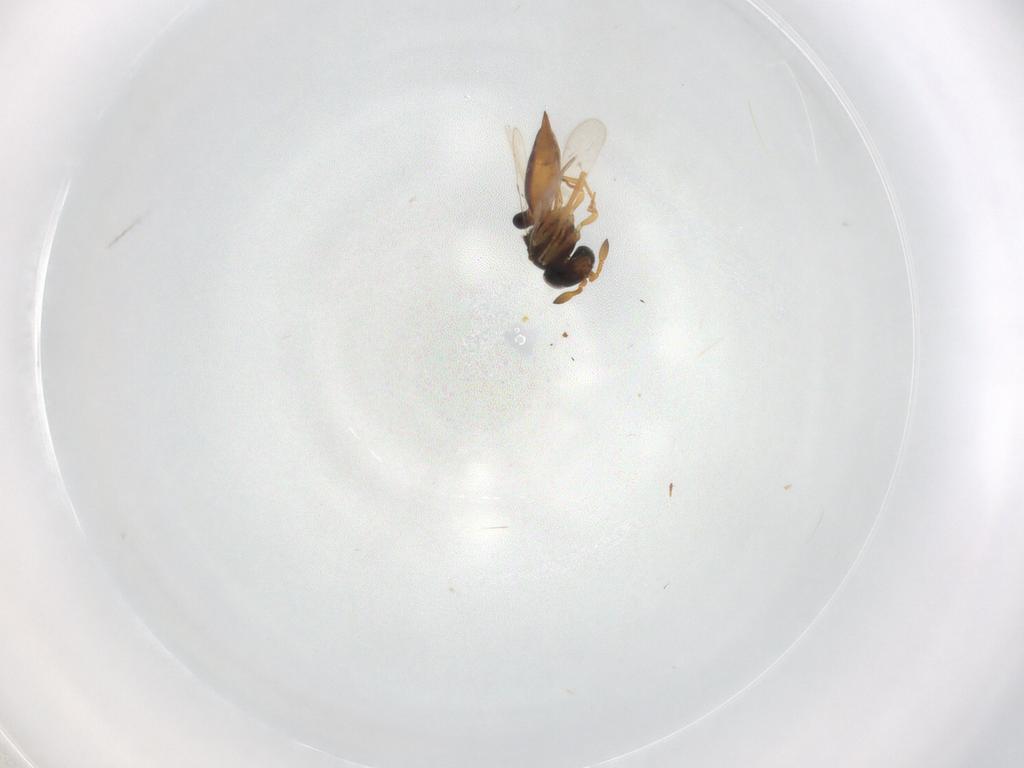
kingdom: Animalia
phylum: Arthropoda
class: Insecta
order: Hymenoptera
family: Scelionidae
